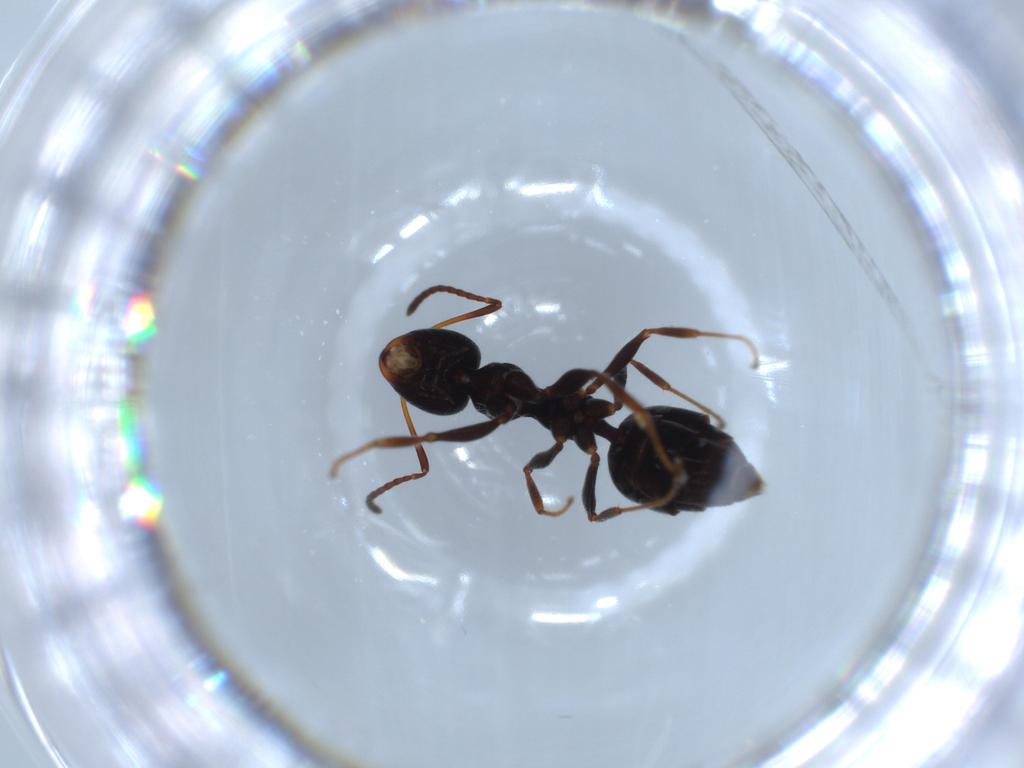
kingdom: Animalia
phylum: Arthropoda
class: Insecta
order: Hymenoptera
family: Formicidae
